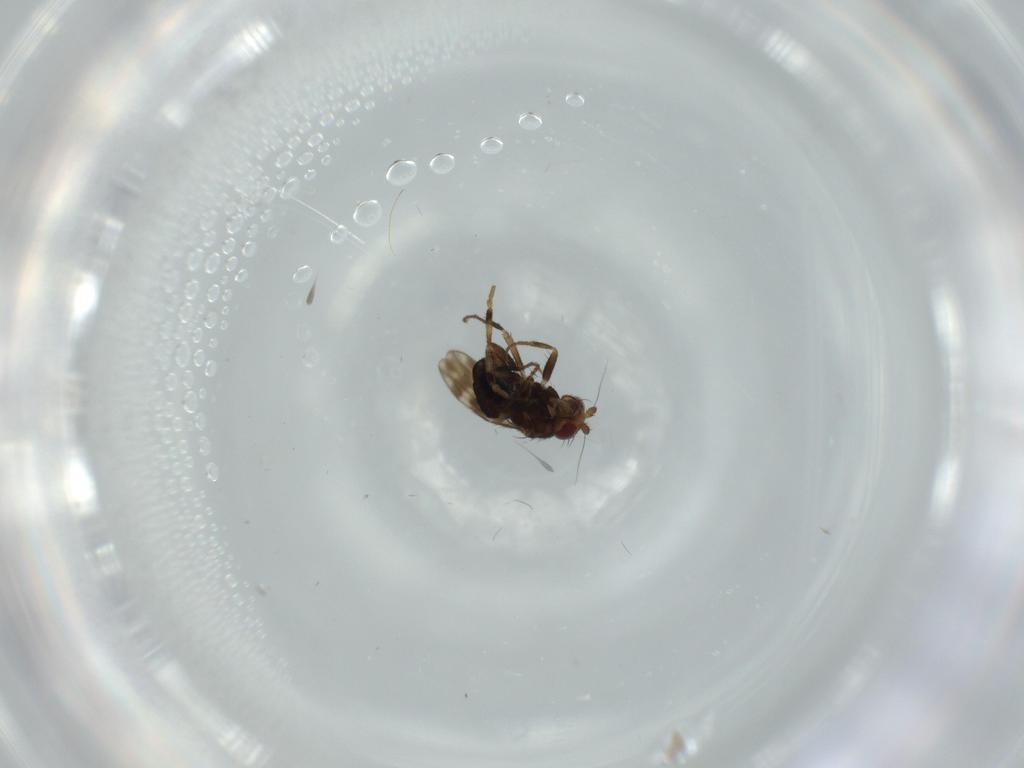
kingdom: Animalia
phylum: Arthropoda
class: Insecta
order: Diptera
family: Sphaeroceridae
